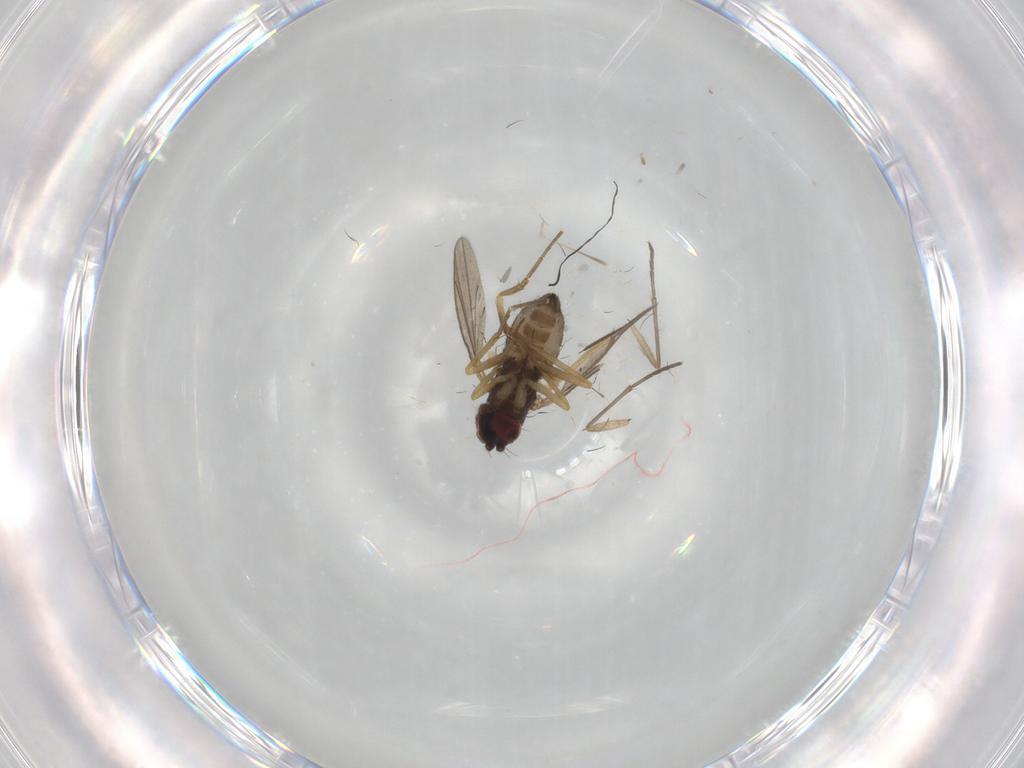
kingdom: Animalia
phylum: Arthropoda
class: Insecta
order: Diptera
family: Dolichopodidae
